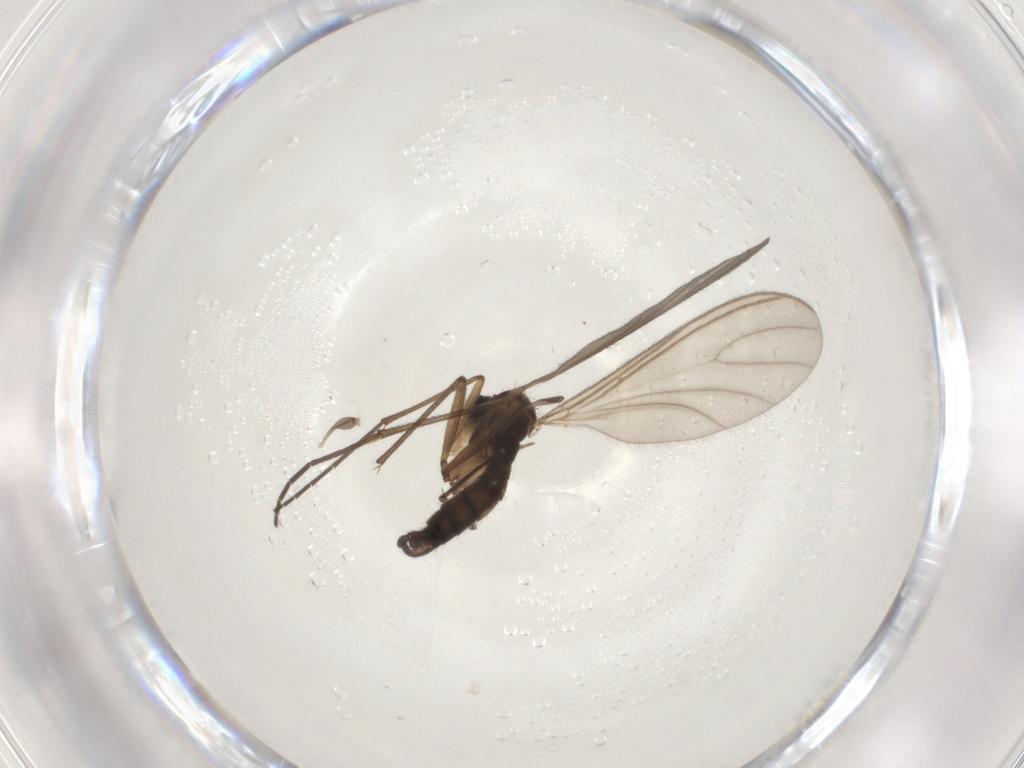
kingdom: Animalia
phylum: Arthropoda
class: Insecta
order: Diptera
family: Sciaridae
